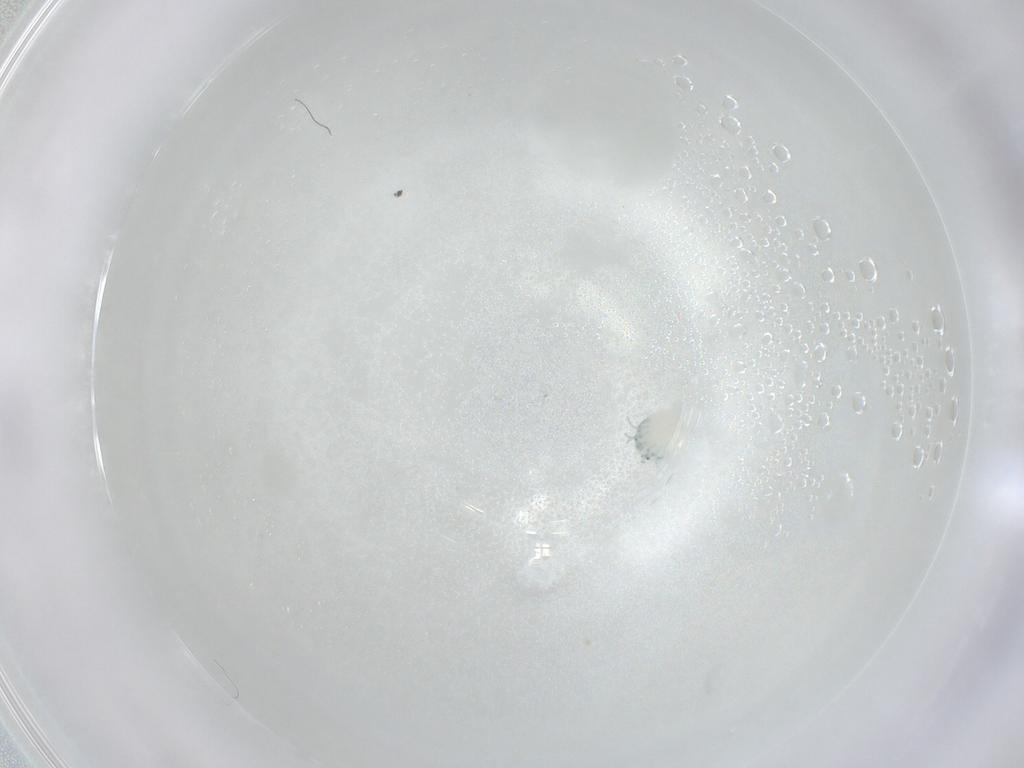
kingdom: Animalia
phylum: Arthropoda
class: Arachnida
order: Trombidiformes
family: Arrenuridae
